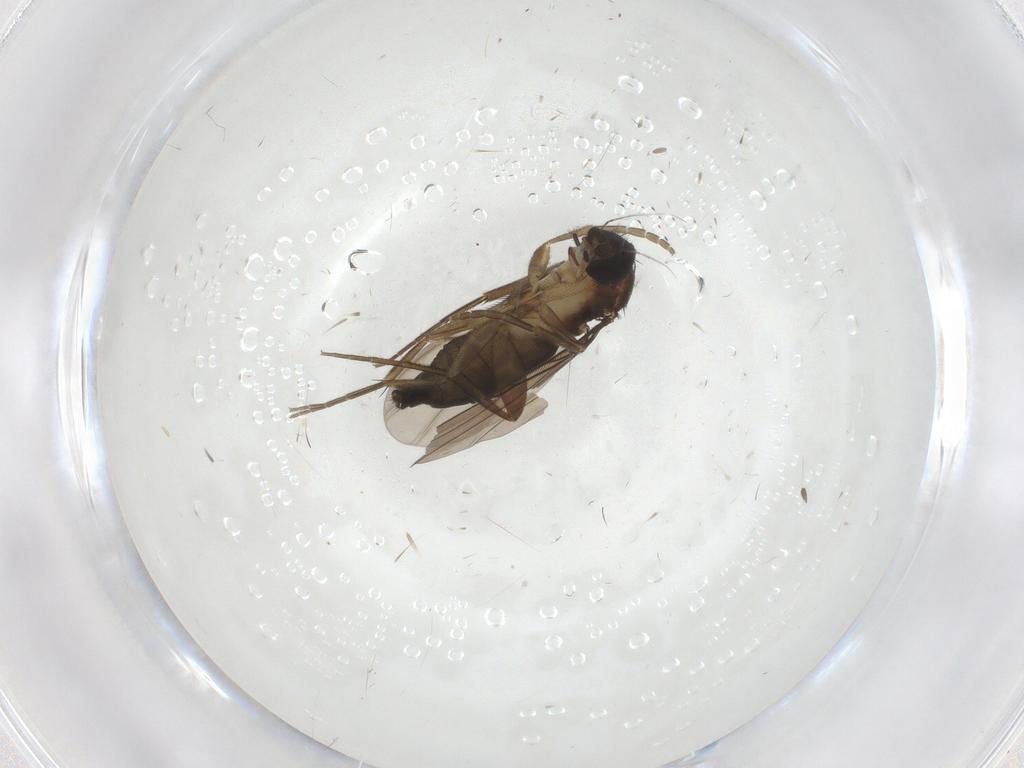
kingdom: Animalia
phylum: Arthropoda
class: Insecta
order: Diptera
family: Phoridae
